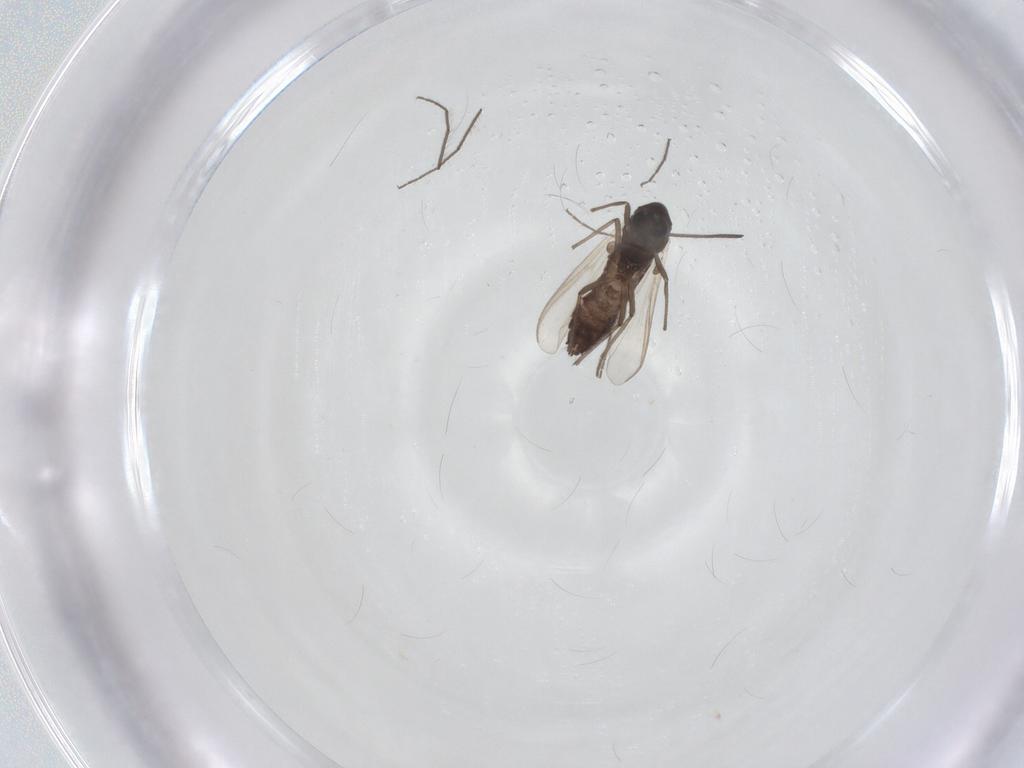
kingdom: Animalia
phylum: Arthropoda
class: Insecta
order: Diptera
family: Chironomidae
